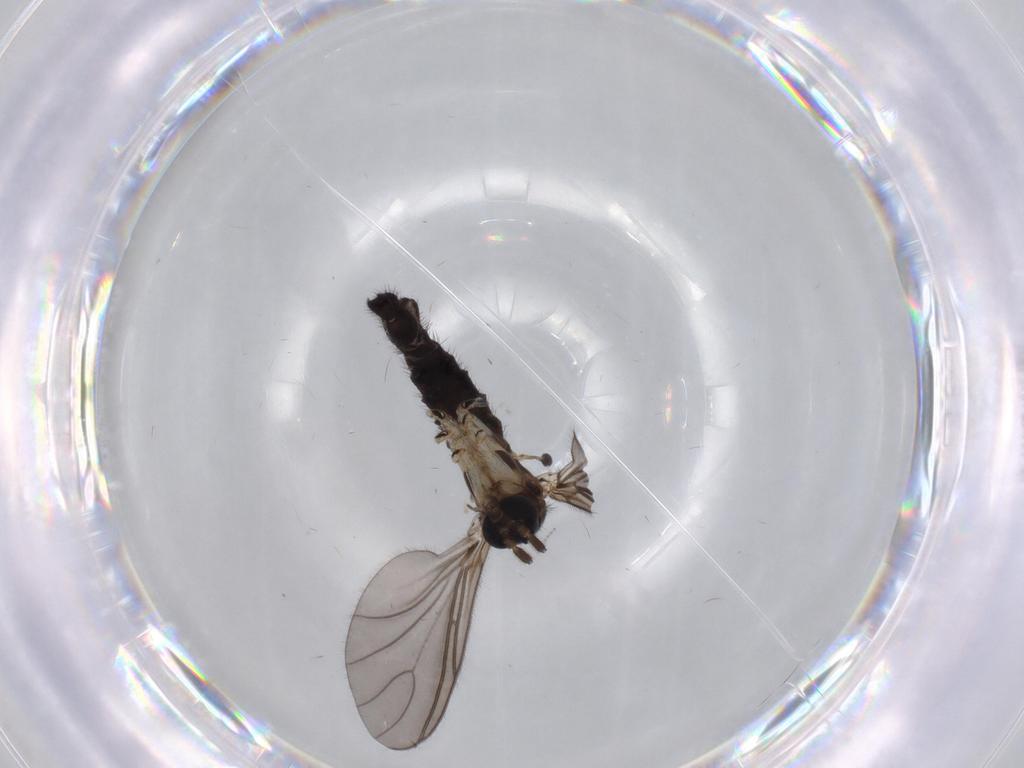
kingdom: Animalia
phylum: Arthropoda
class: Insecta
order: Diptera
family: Sciaridae
